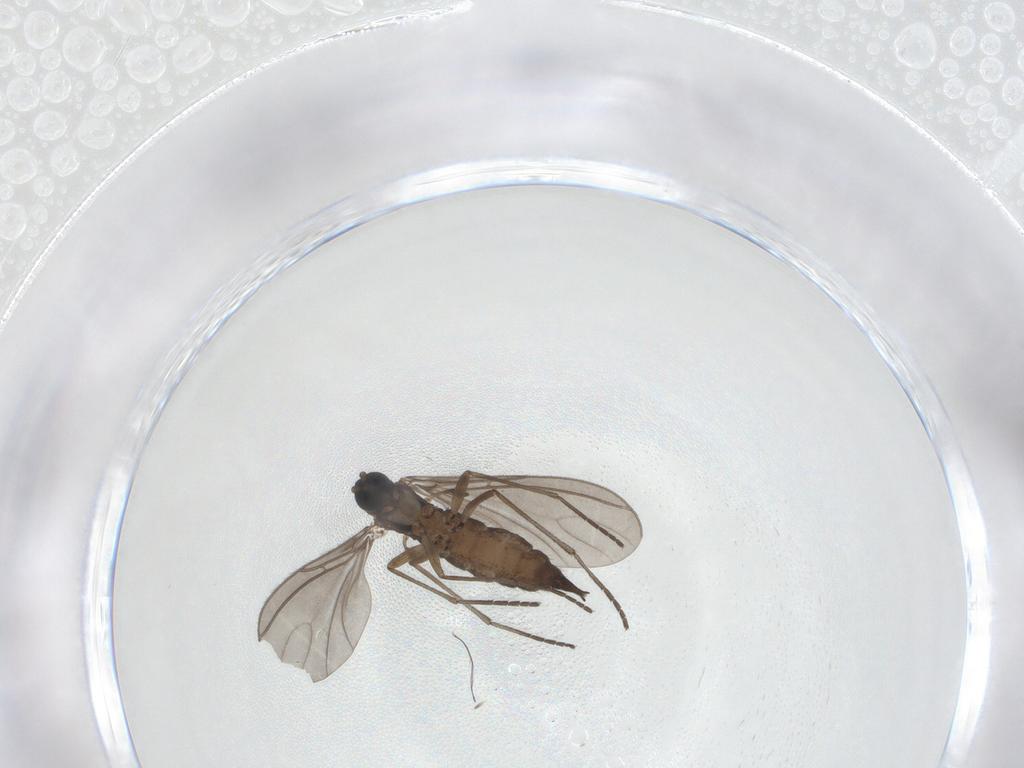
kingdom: Animalia
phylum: Arthropoda
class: Insecta
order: Diptera
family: Sciaridae
